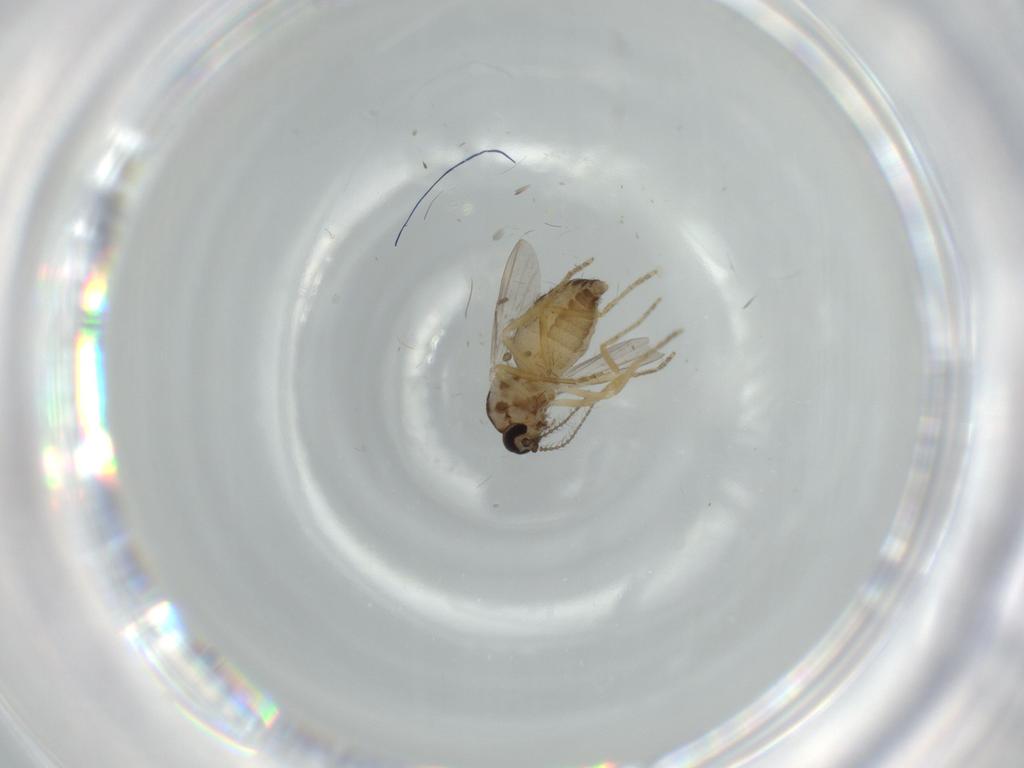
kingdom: Animalia
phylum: Arthropoda
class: Insecta
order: Diptera
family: Ceratopogonidae
